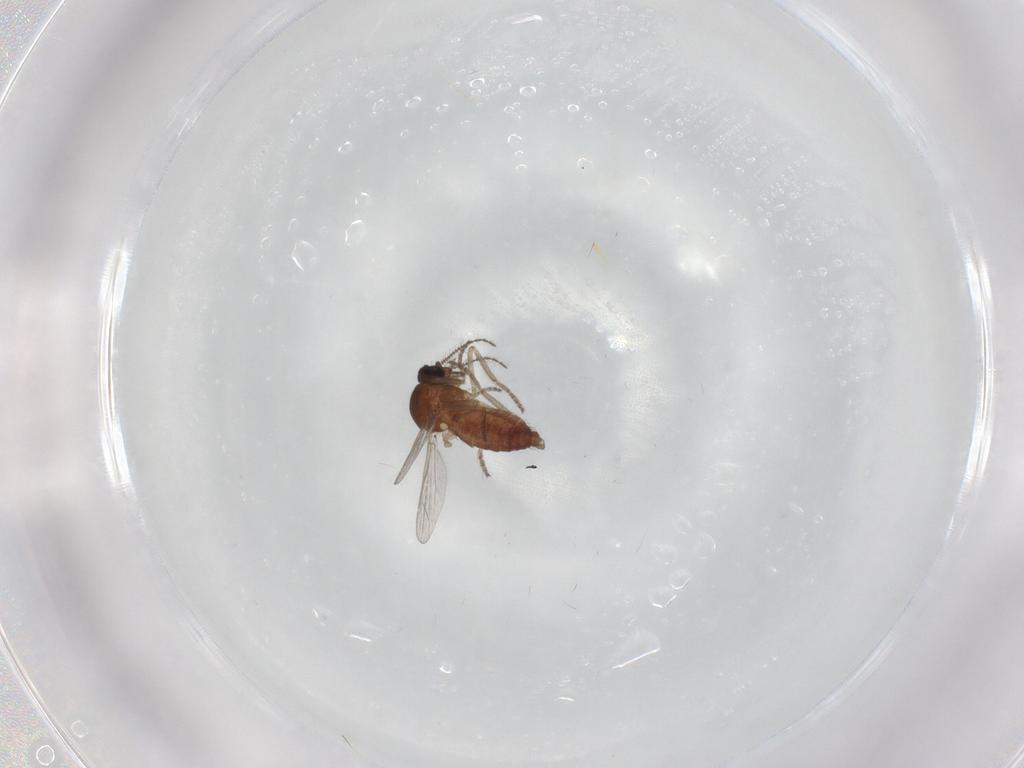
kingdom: Animalia
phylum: Arthropoda
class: Insecta
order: Diptera
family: Ceratopogonidae
